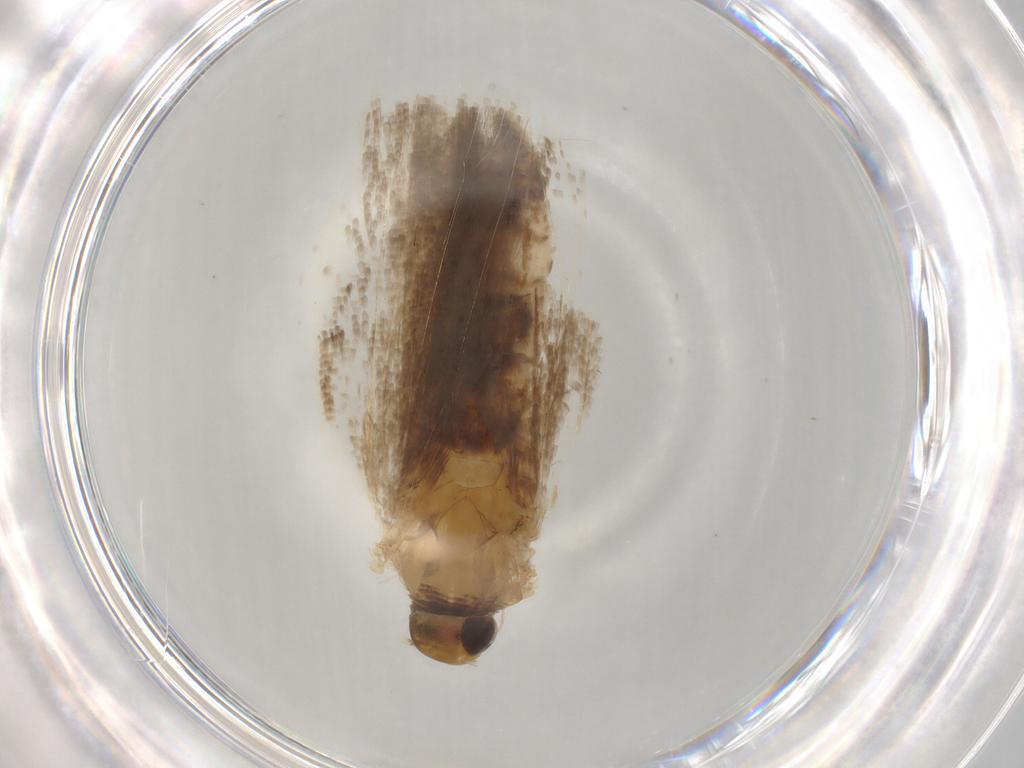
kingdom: Animalia
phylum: Arthropoda
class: Insecta
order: Lepidoptera
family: Gelechiidae
